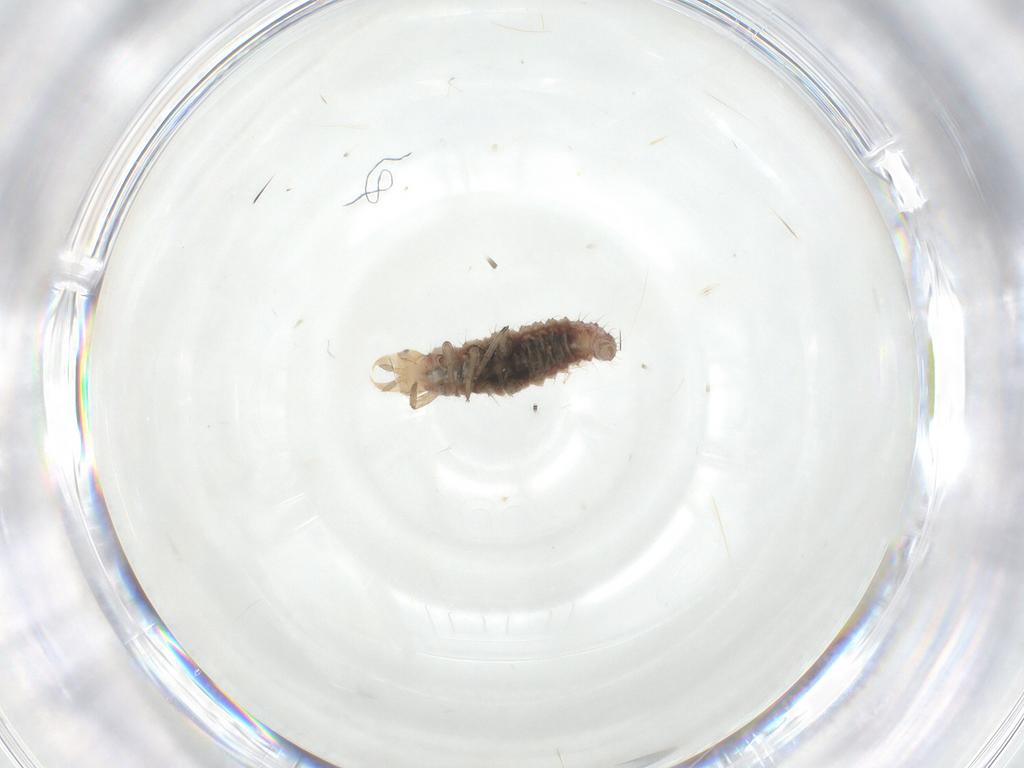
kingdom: Animalia
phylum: Arthropoda
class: Insecta
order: Neuroptera
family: Hemerobiidae
